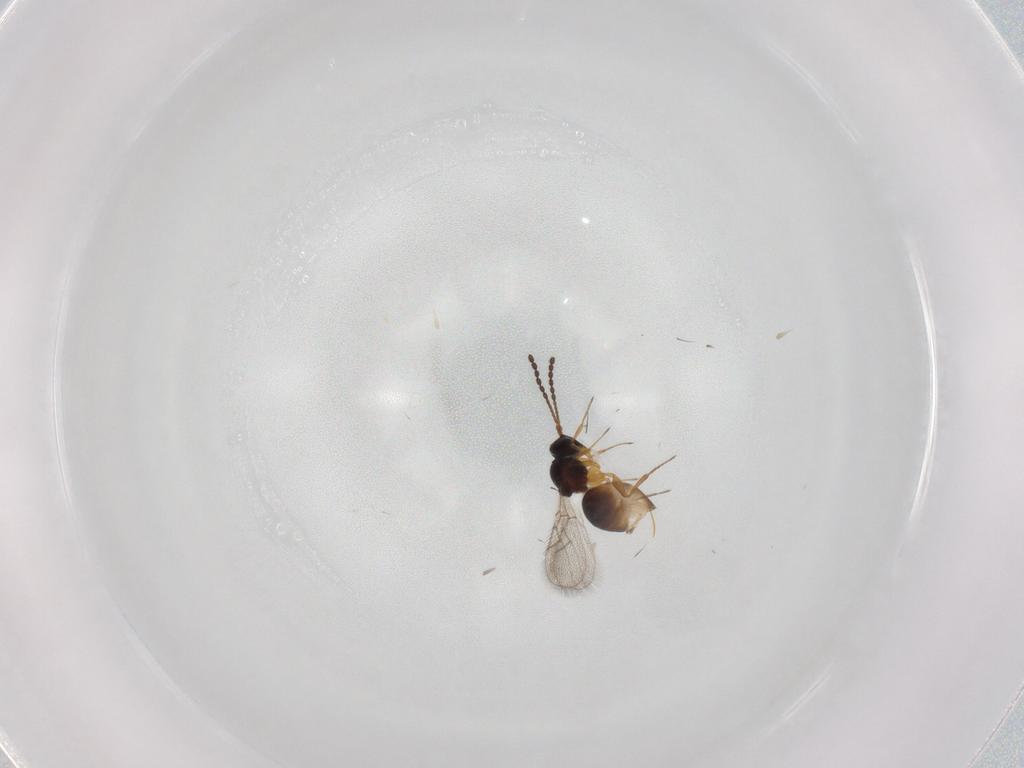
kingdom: Animalia
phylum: Arthropoda
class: Insecta
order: Hymenoptera
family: Figitidae
